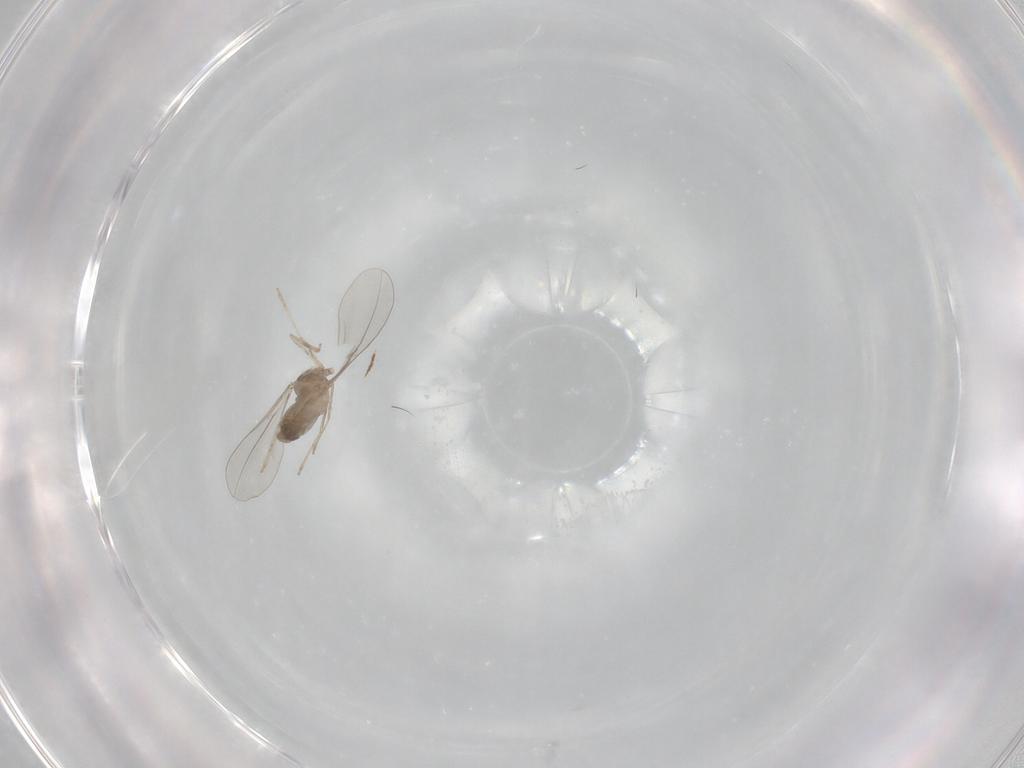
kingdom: Animalia
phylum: Arthropoda
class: Insecta
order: Diptera
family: Cecidomyiidae
